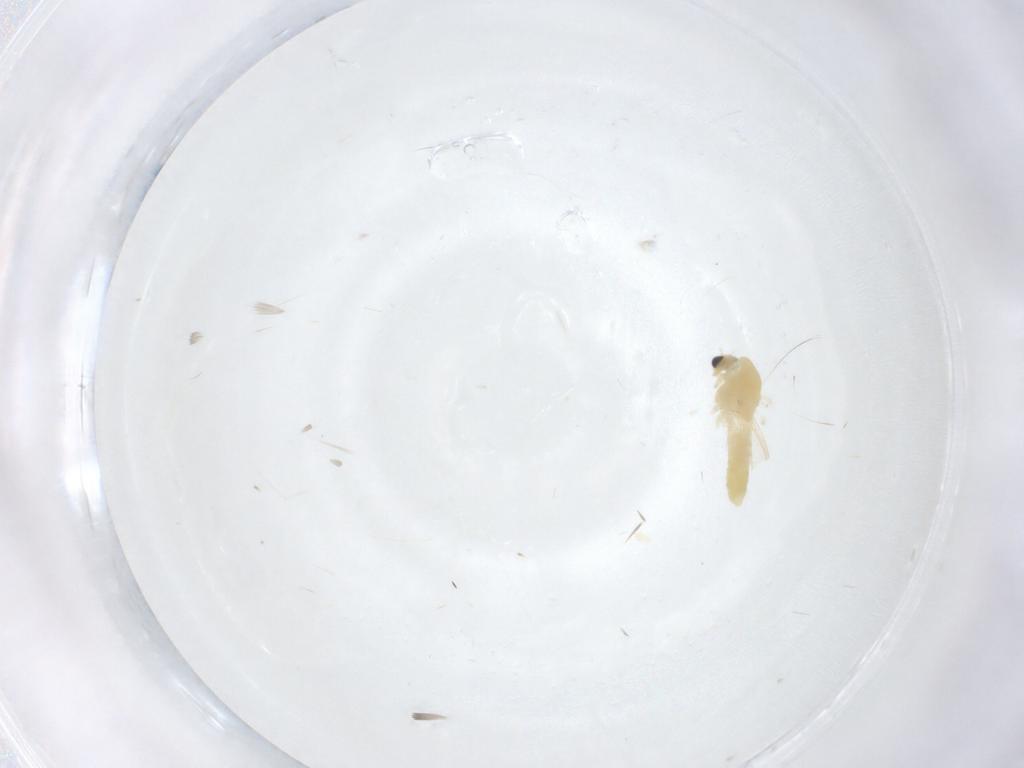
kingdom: Animalia
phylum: Arthropoda
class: Insecta
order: Diptera
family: Chironomidae
